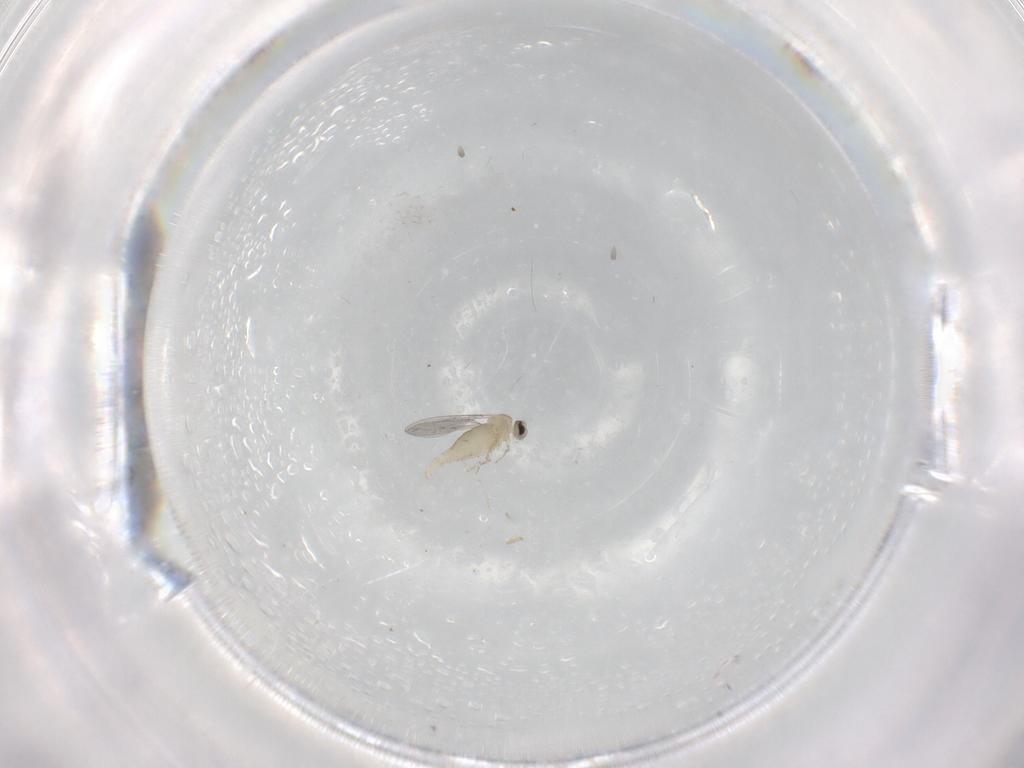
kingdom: Animalia
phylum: Arthropoda
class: Insecta
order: Diptera
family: Cecidomyiidae
